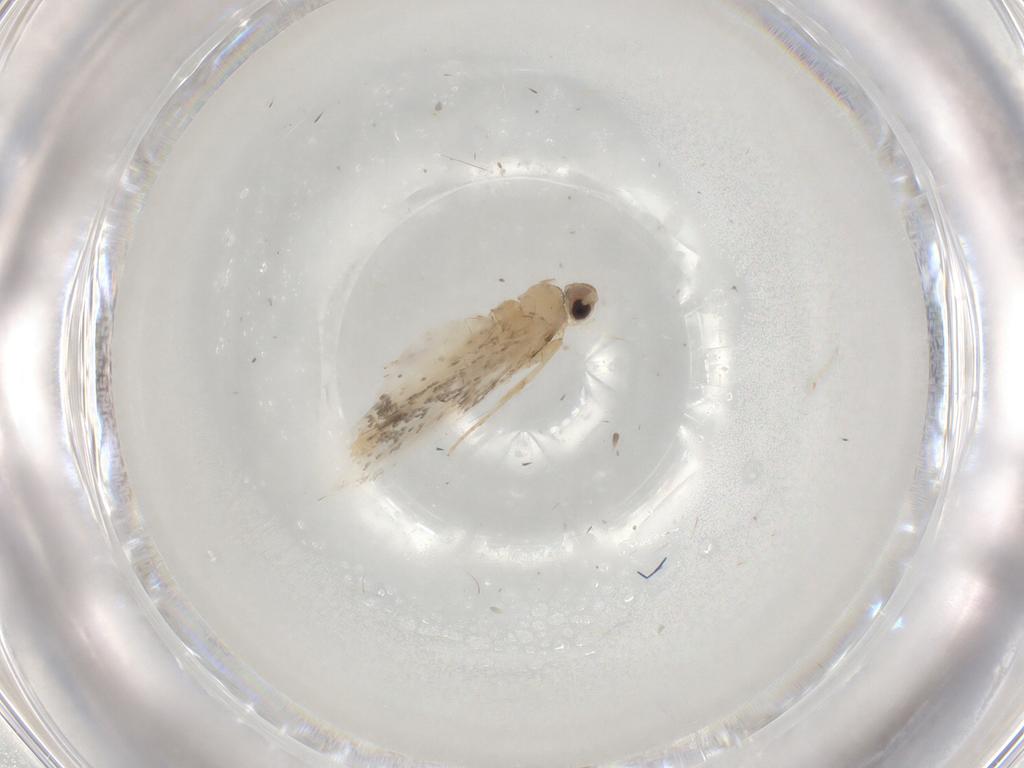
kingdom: Animalia
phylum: Arthropoda
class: Insecta
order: Lepidoptera
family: Tineidae
